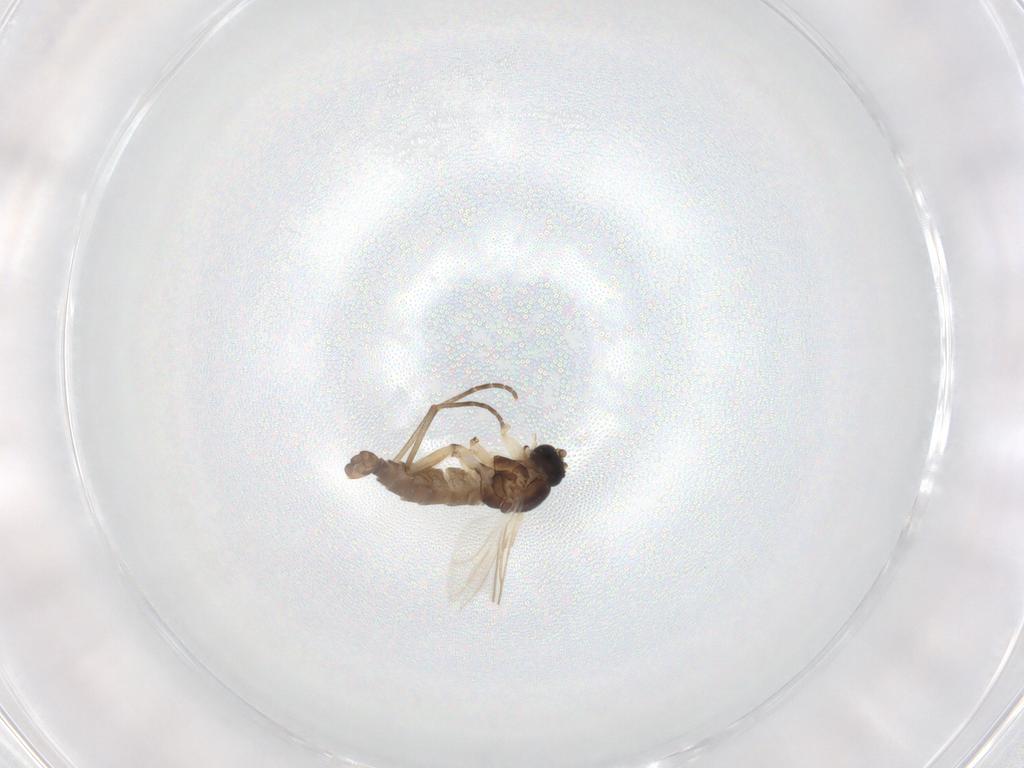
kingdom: Animalia
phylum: Arthropoda
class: Insecta
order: Diptera
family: Sciaridae
